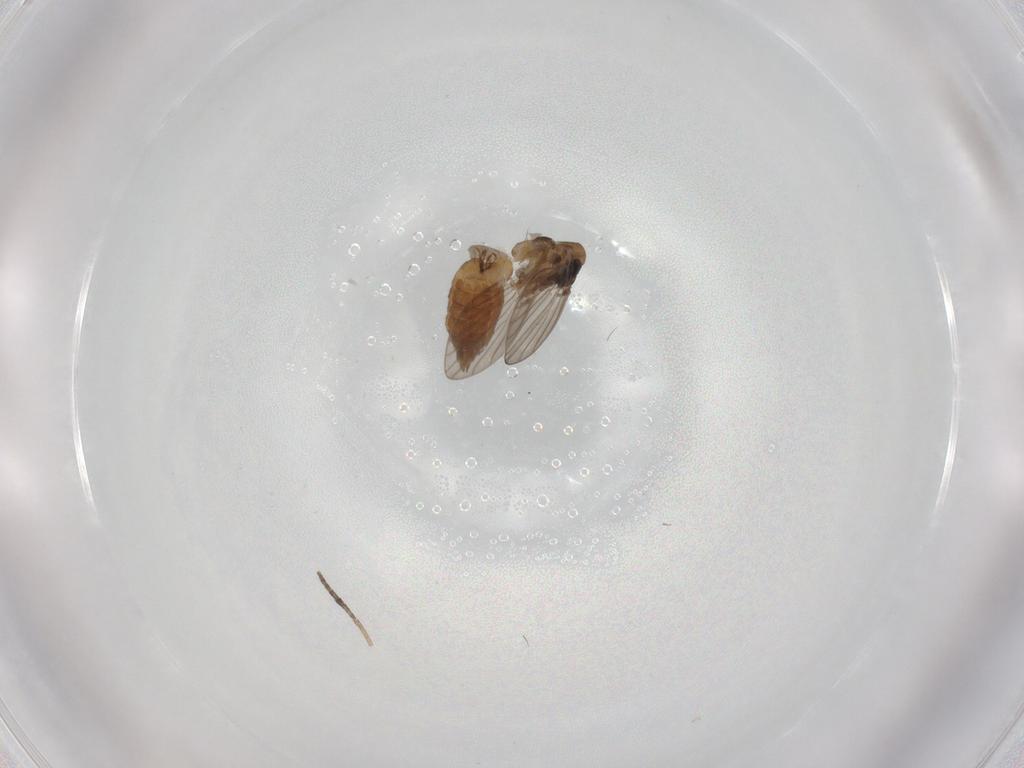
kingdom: Animalia
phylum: Arthropoda
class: Insecta
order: Diptera
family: Psychodidae
